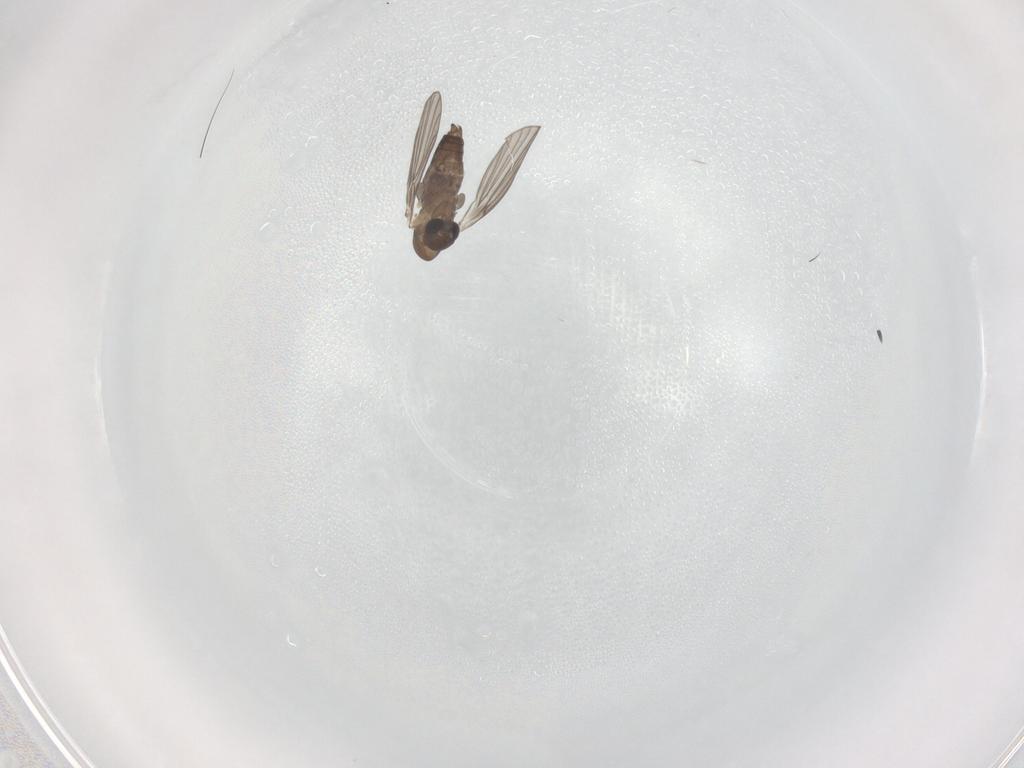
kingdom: Animalia
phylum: Arthropoda
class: Insecta
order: Diptera
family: Psychodidae
